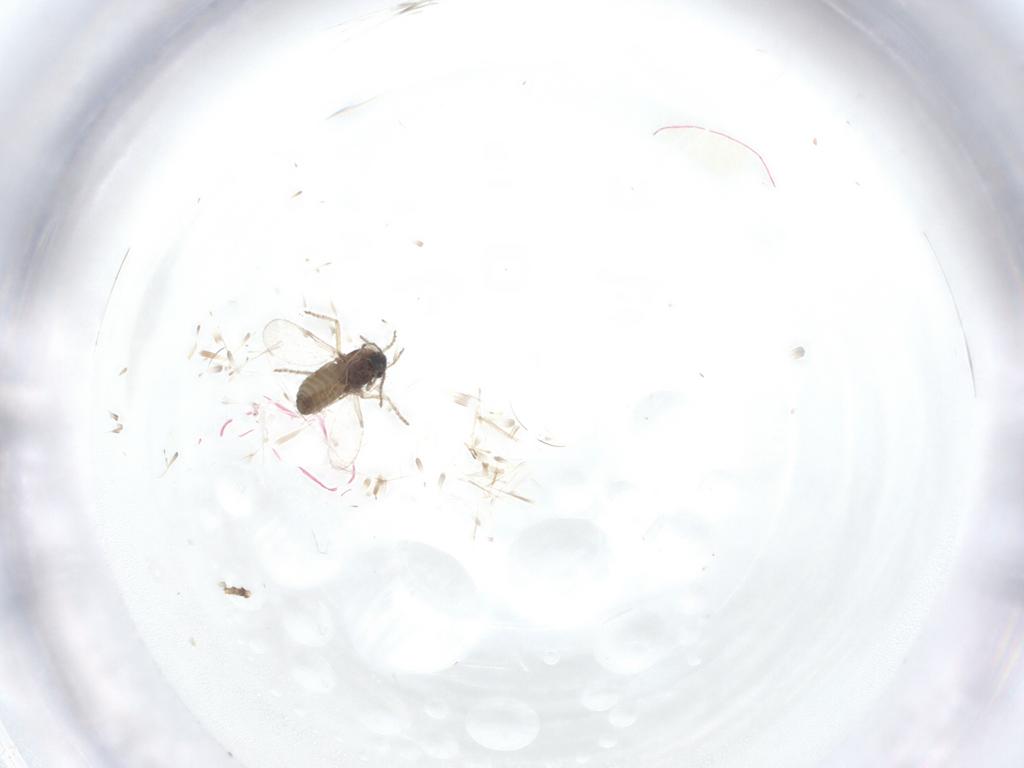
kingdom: Animalia
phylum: Arthropoda
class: Insecta
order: Diptera
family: Ceratopogonidae
